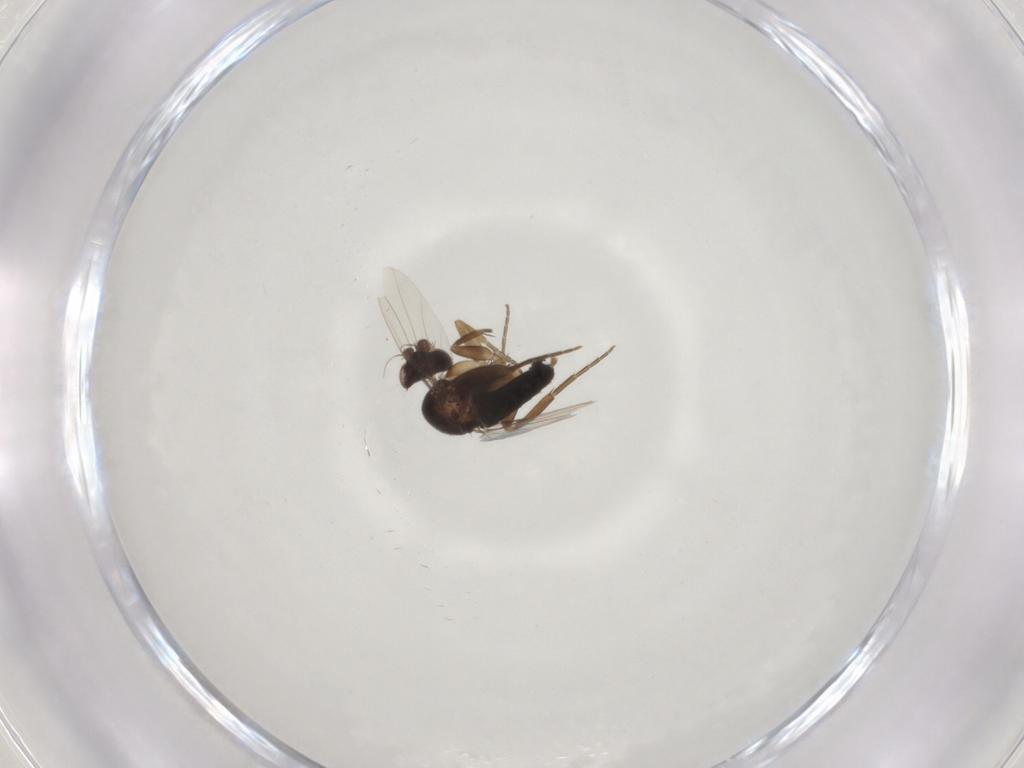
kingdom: Animalia
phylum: Arthropoda
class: Insecta
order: Diptera
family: Phoridae
